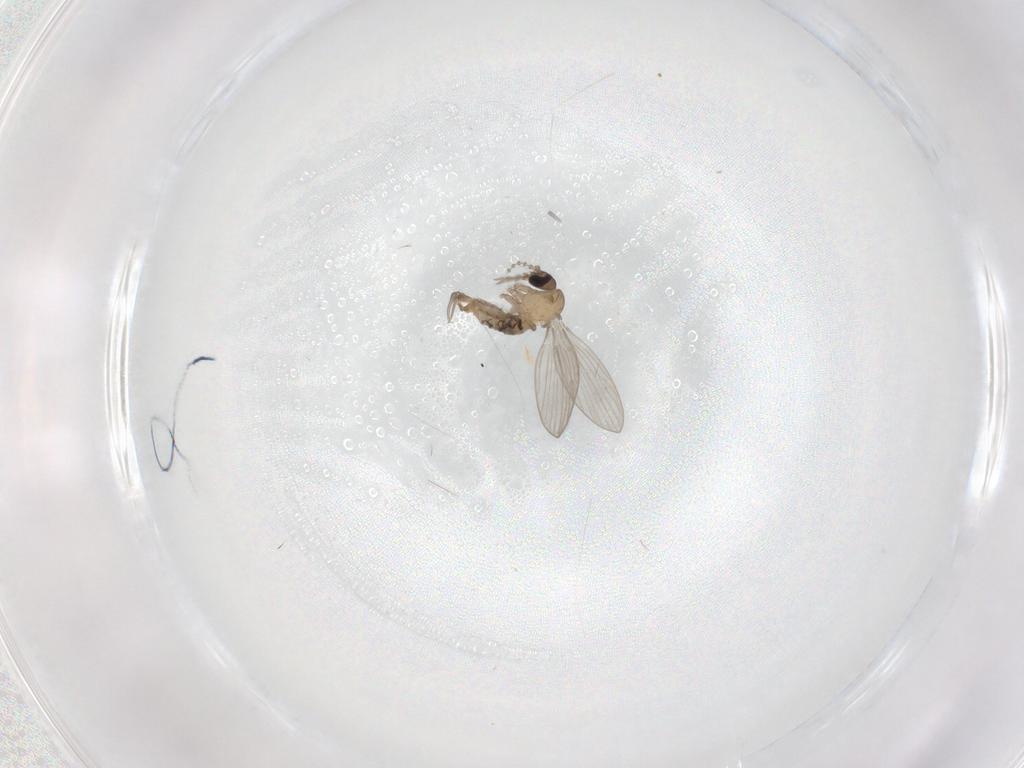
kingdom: Animalia
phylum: Arthropoda
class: Insecta
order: Diptera
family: Psychodidae
